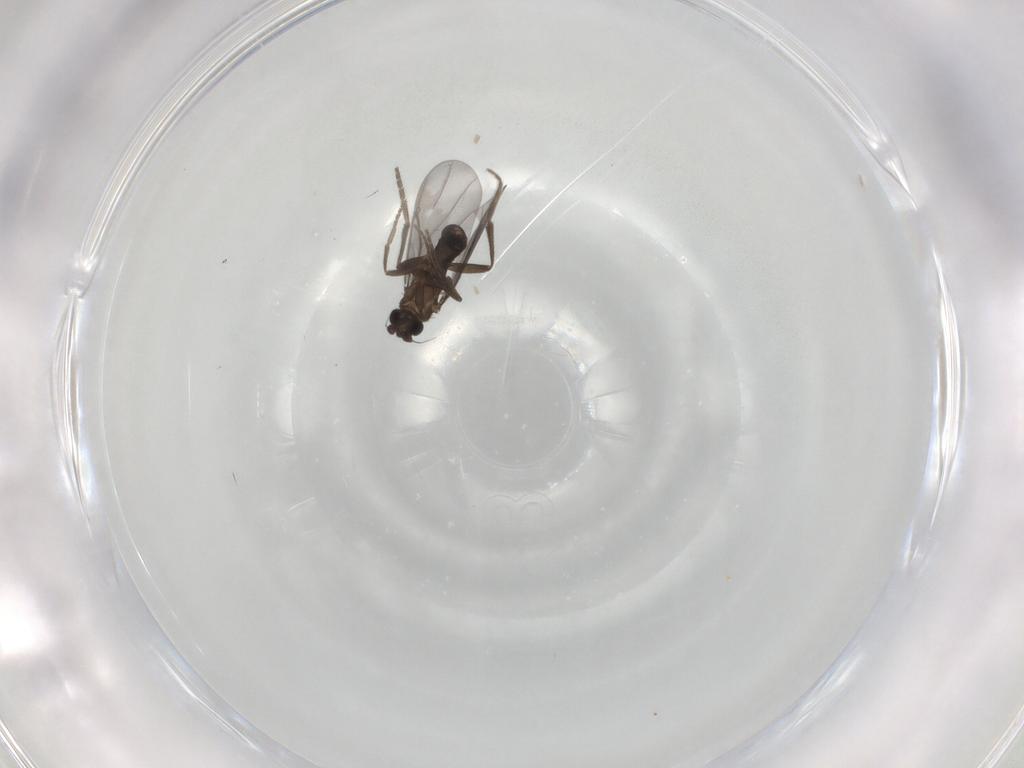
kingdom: Animalia
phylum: Arthropoda
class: Insecta
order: Diptera
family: Phoridae
